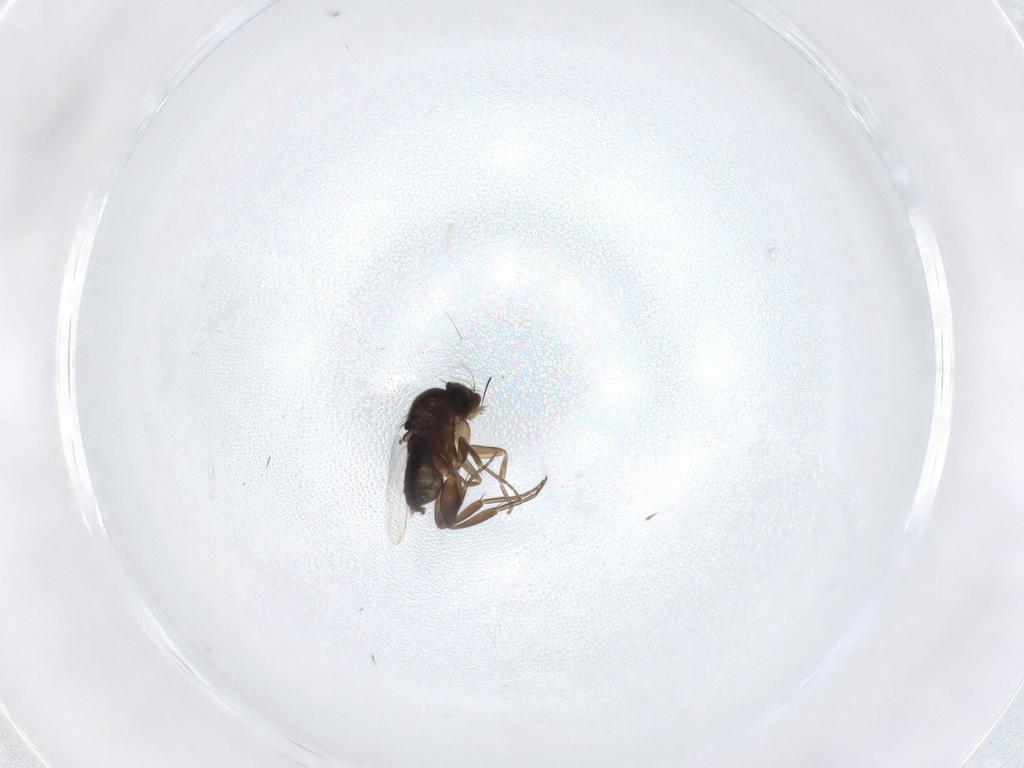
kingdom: Animalia
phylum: Arthropoda
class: Insecta
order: Diptera
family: Phoridae
